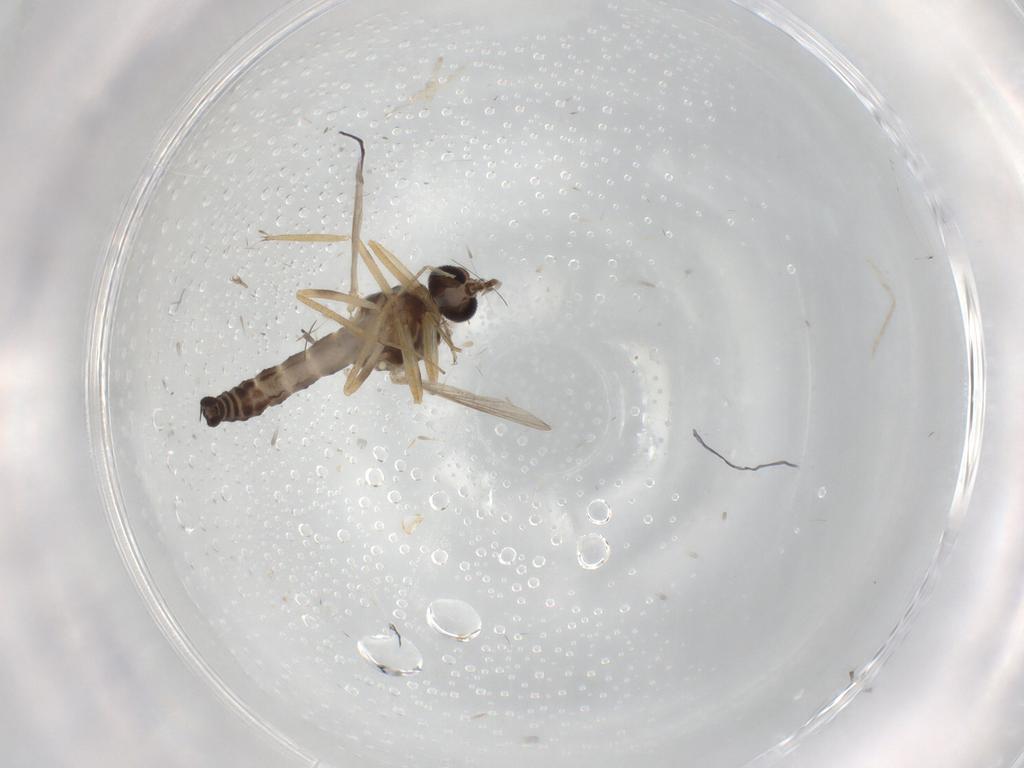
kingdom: Animalia
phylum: Arthropoda
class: Insecta
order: Diptera
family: Ceratopogonidae
